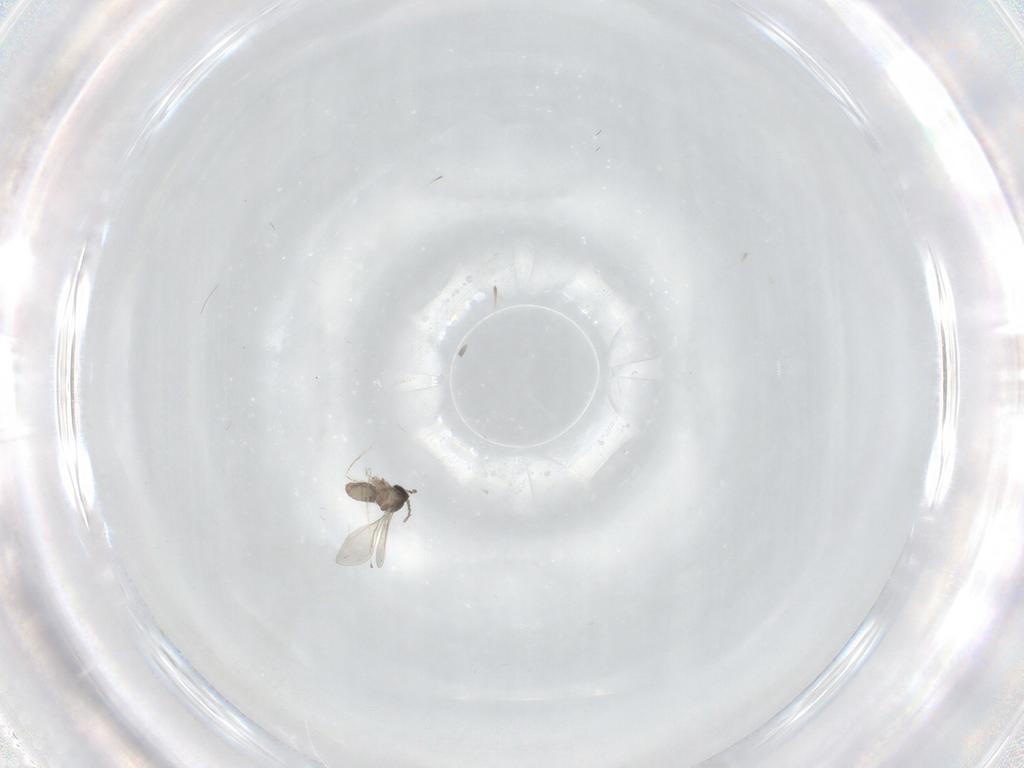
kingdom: Animalia
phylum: Arthropoda
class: Insecta
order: Diptera
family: Cecidomyiidae
